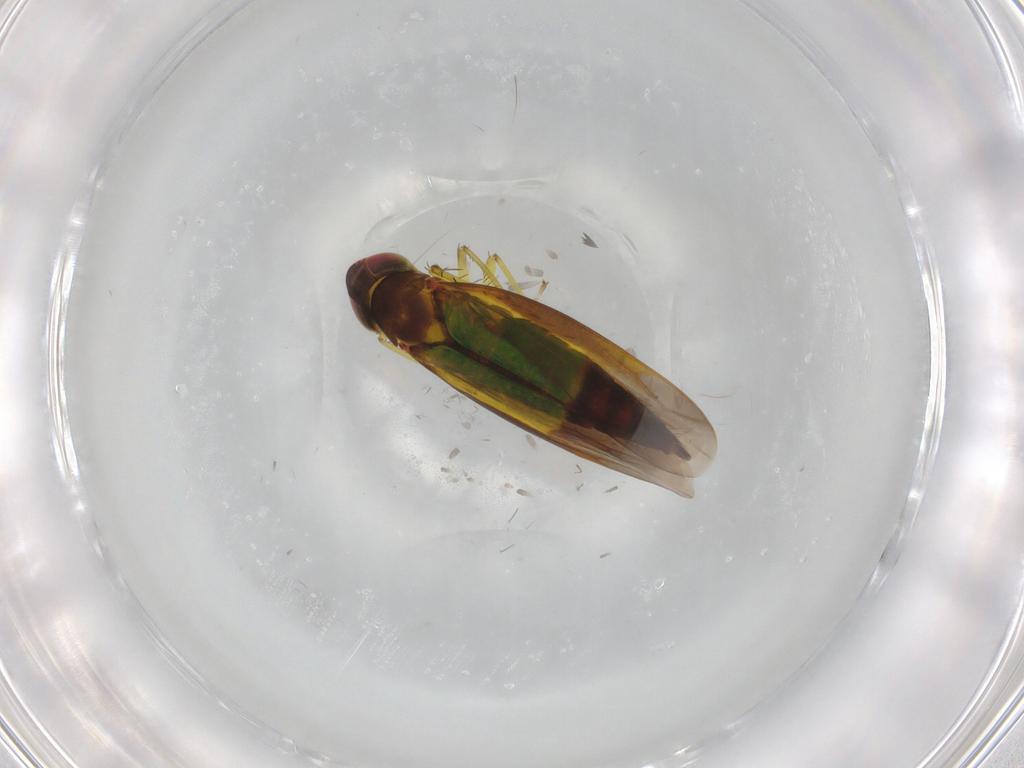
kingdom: Animalia
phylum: Arthropoda
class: Insecta
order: Hemiptera
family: Cicadellidae
